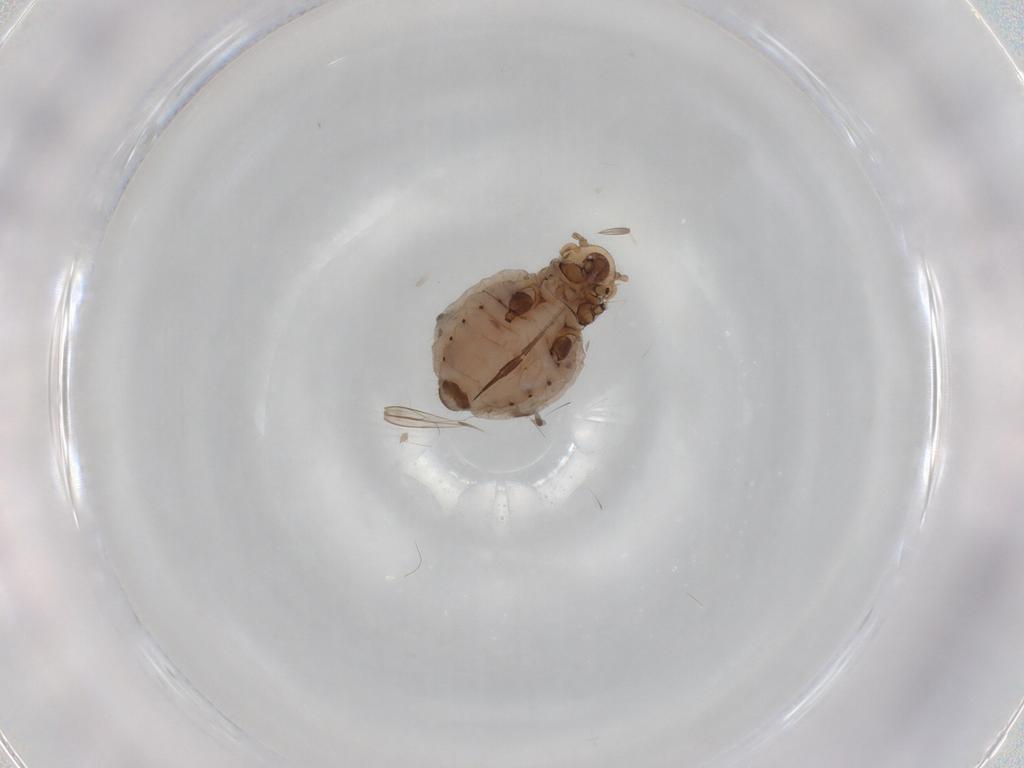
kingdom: Animalia
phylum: Arthropoda
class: Insecta
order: Hemiptera
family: Aphididae
